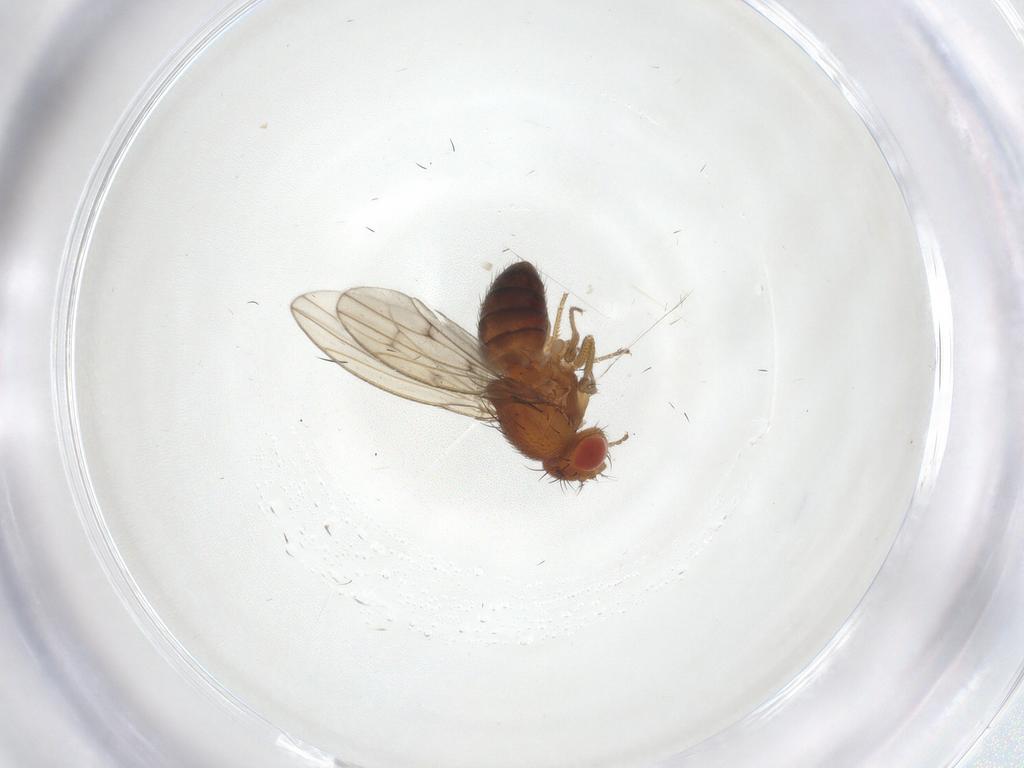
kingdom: Animalia
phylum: Arthropoda
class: Insecta
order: Diptera
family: Drosophilidae
